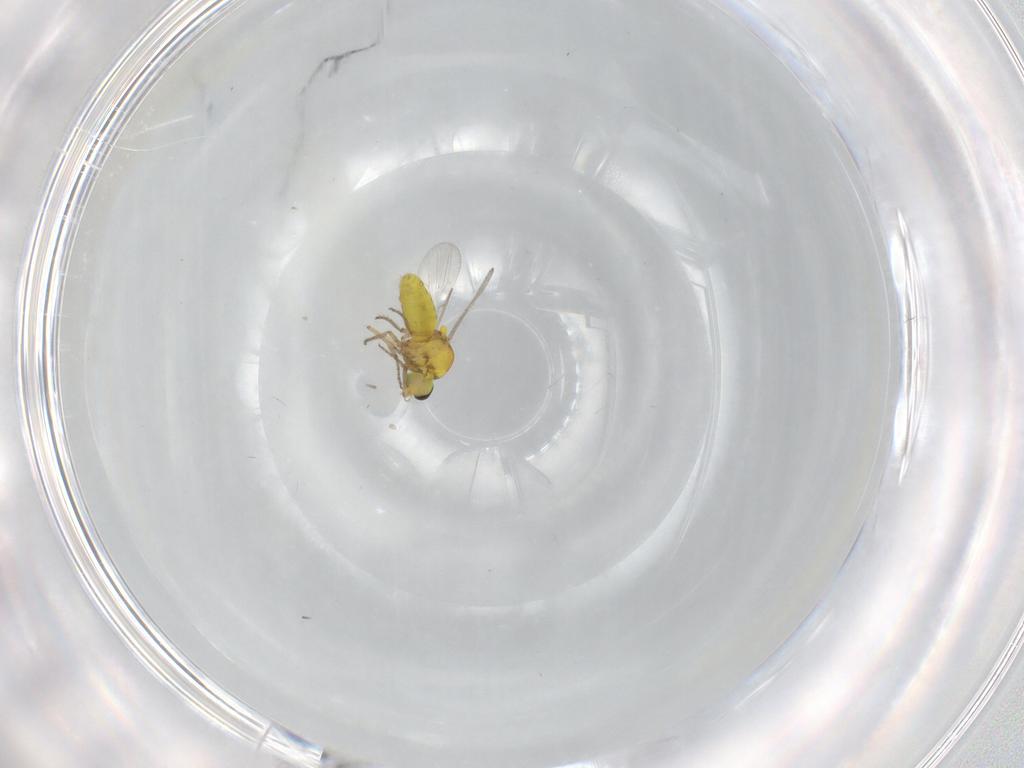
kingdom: Animalia
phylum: Arthropoda
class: Insecta
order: Diptera
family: Ceratopogonidae
